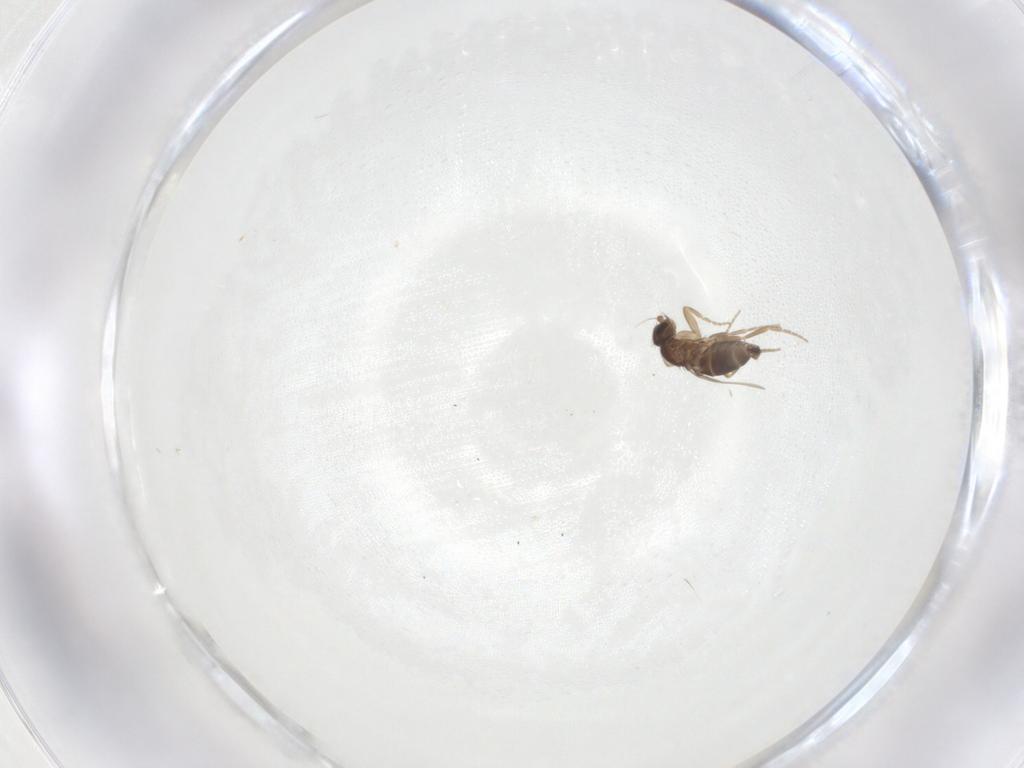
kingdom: Animalia
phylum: Arthropoda
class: Insecta
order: Diptera
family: Phoridae
